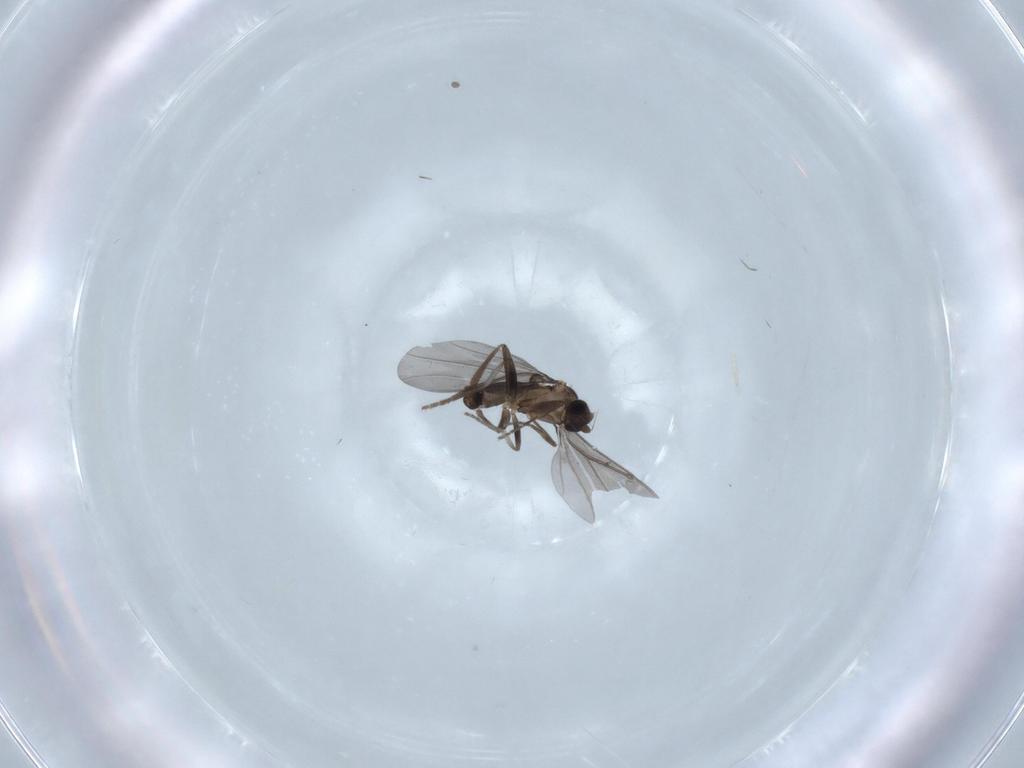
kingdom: Animalia
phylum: Arthropoda
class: Insecta
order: Diptera
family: Phoridae
